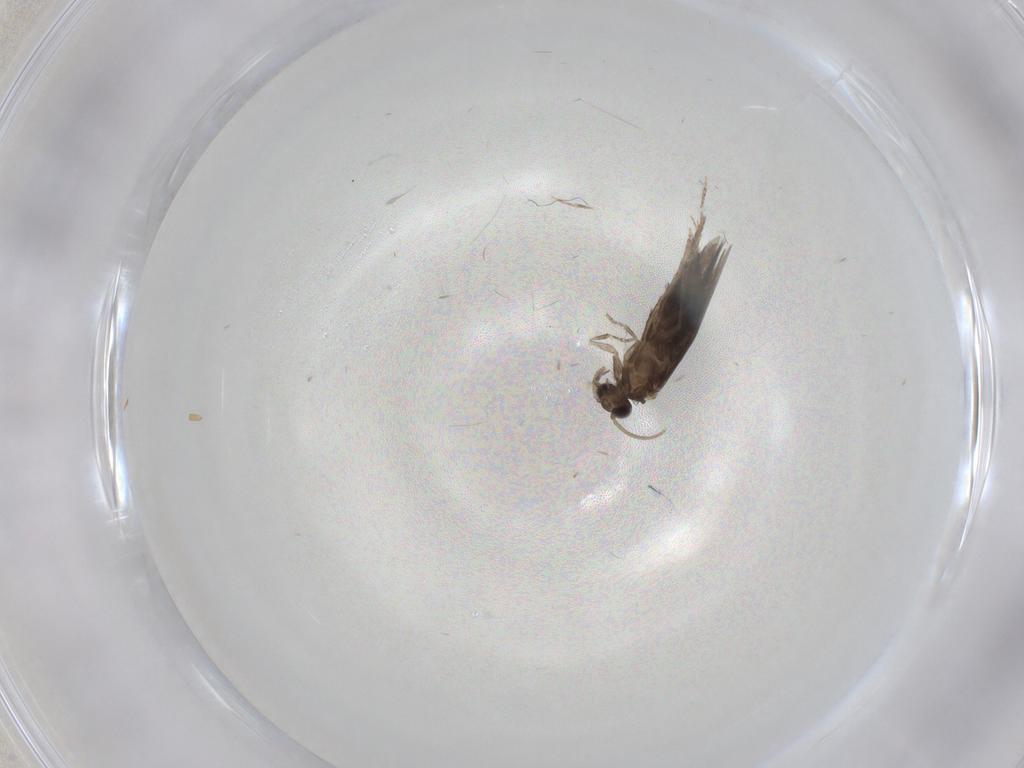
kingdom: Animalia
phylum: Arthropoda
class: Insecta
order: Trichoptera
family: Hydroptilidae
